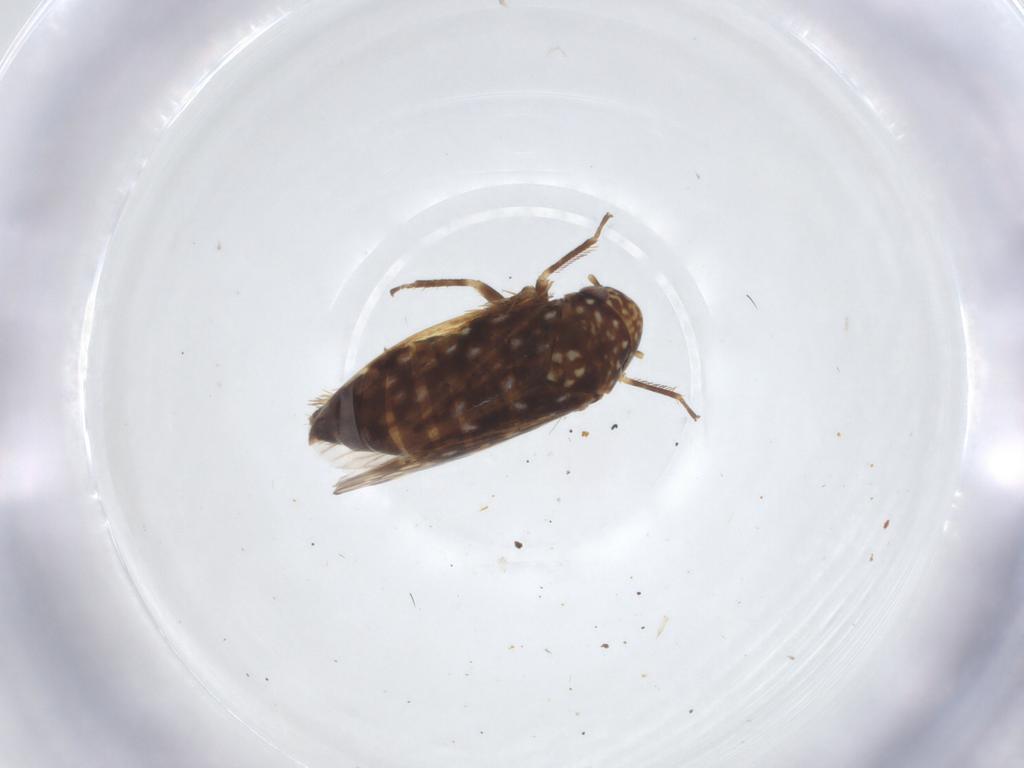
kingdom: Animalia
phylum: Arthropoda
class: Insecta
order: Hemiptera
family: Cicadellidae
